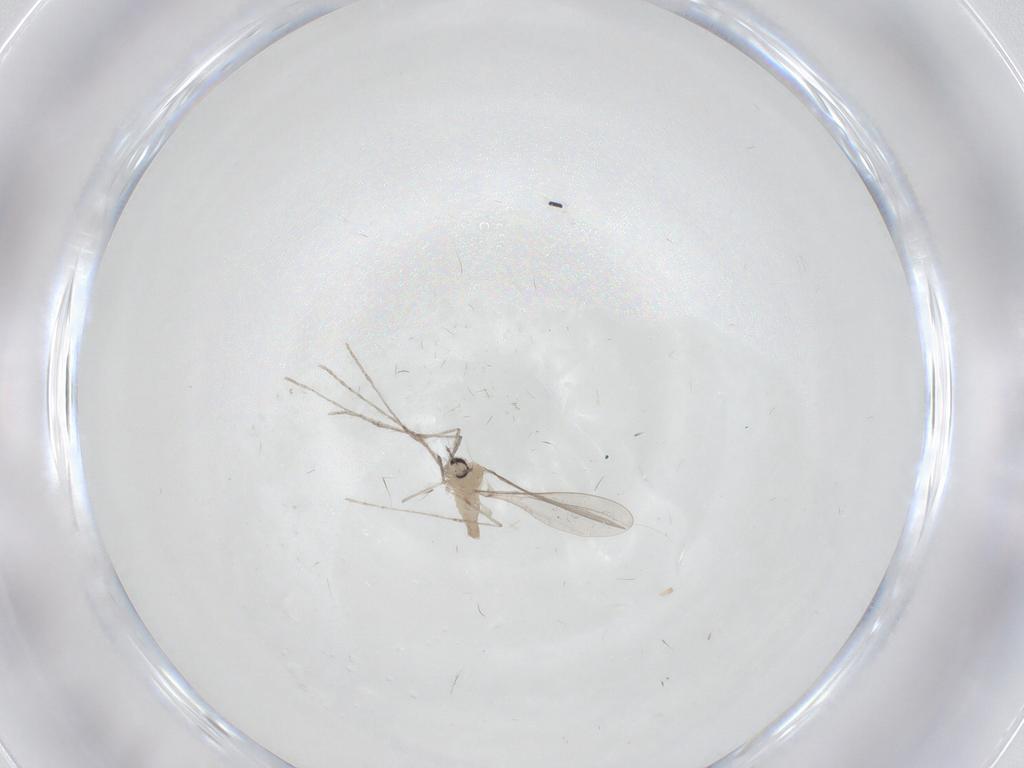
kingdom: Animalia
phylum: Arthropoda
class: Insecta
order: Diptera
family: Cecidomyiidae
